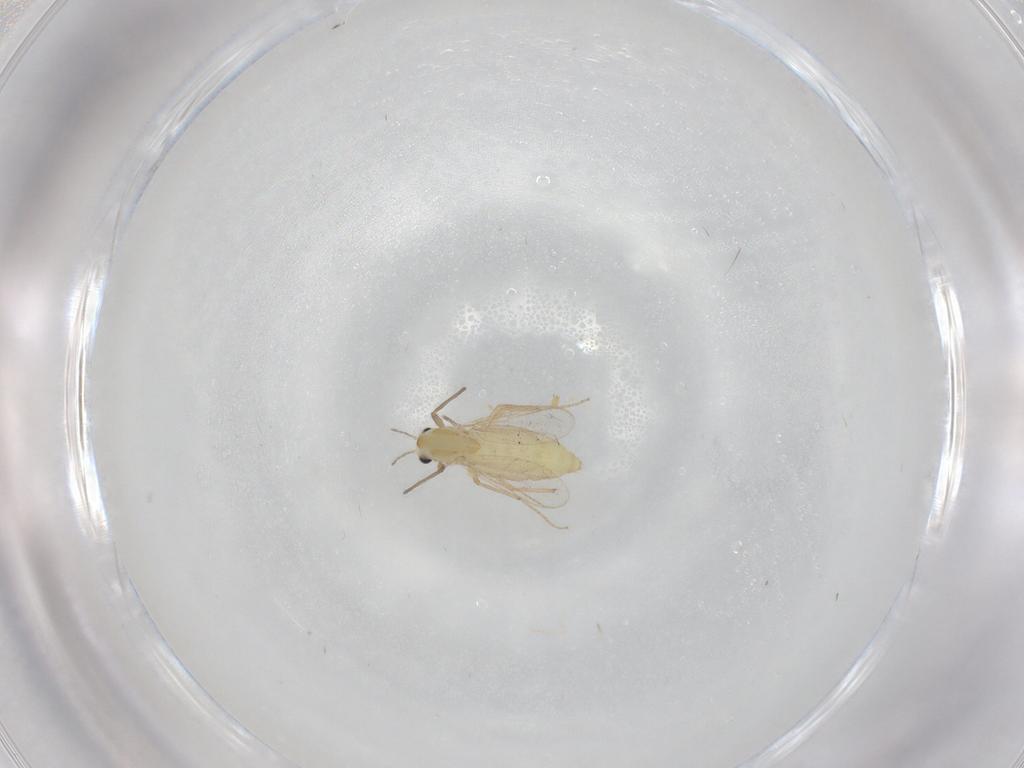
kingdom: Animalia
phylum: Arthropoda
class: Insecta
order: Diptera
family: Chironomidae
